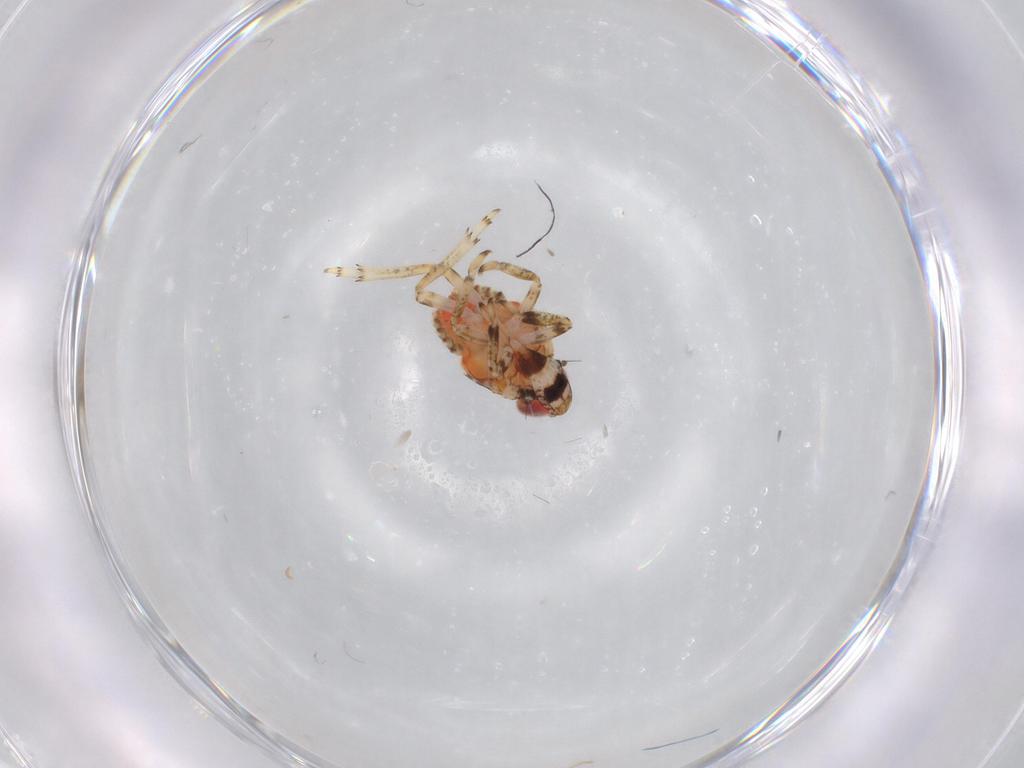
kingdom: Animalia
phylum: Arthropoda
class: Insecta
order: Hemiptera
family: Issidae
